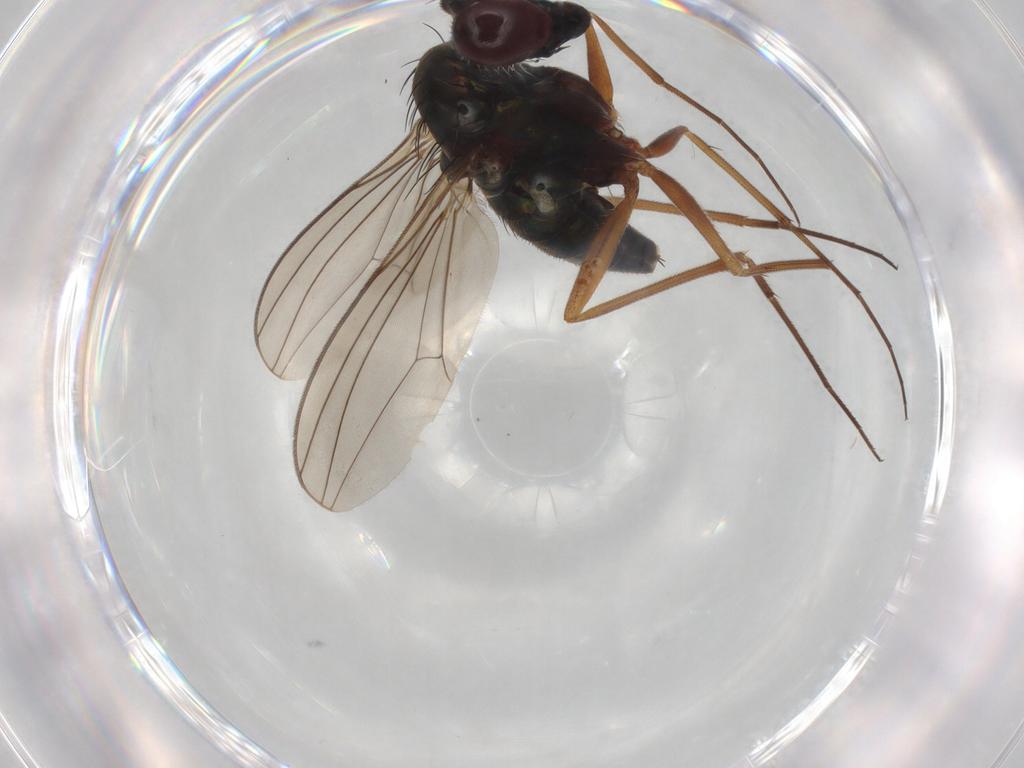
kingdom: Animalia
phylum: Arthropoda
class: Insecta
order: Diptera
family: Dolichopodidae
